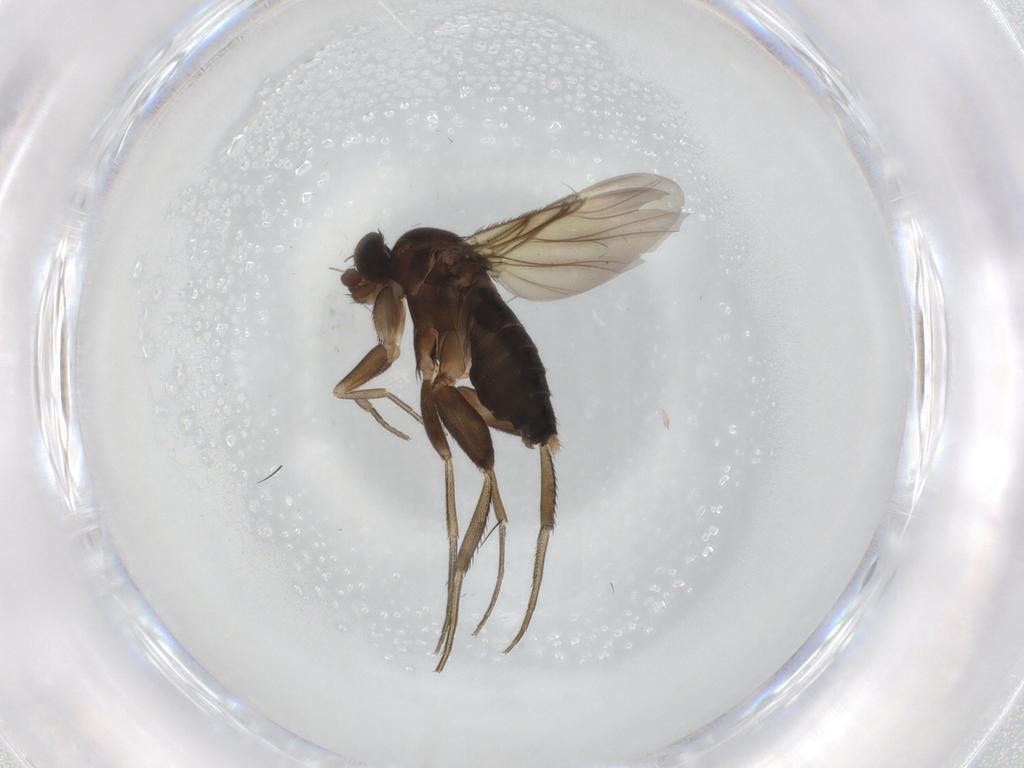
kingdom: Animalia
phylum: Arthropoda
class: Insecta
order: Diptera
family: Phoridae
